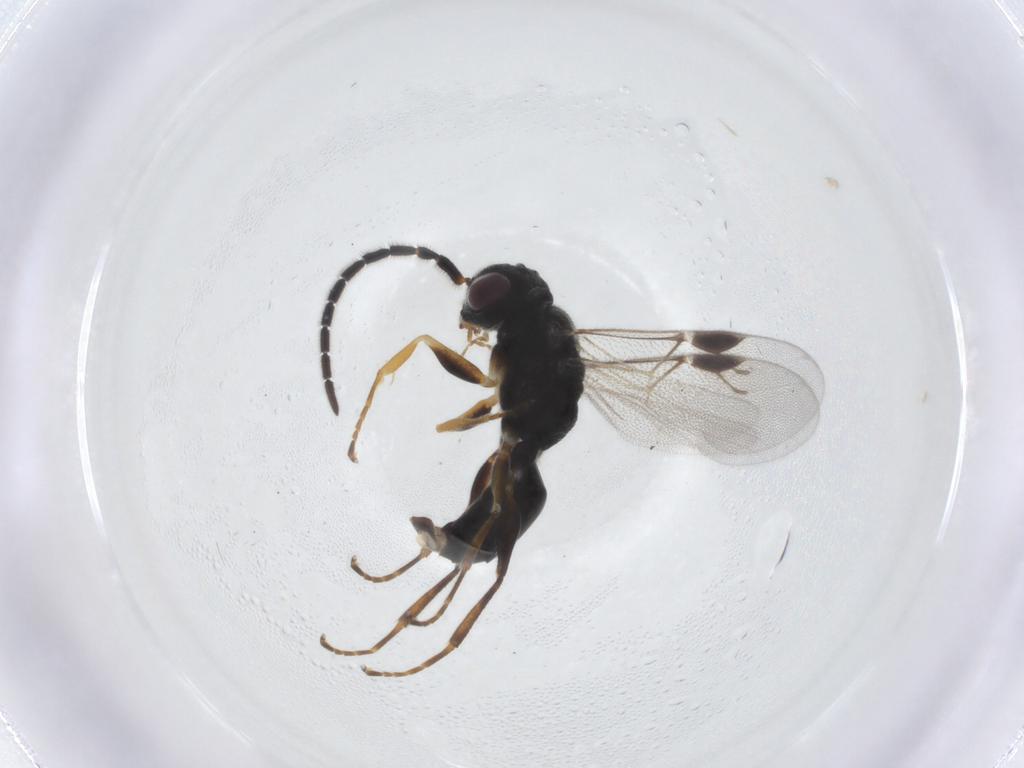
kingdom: Animalia
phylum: Arthropoda
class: Insecta
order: Hymenoptera
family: Dryinidae
